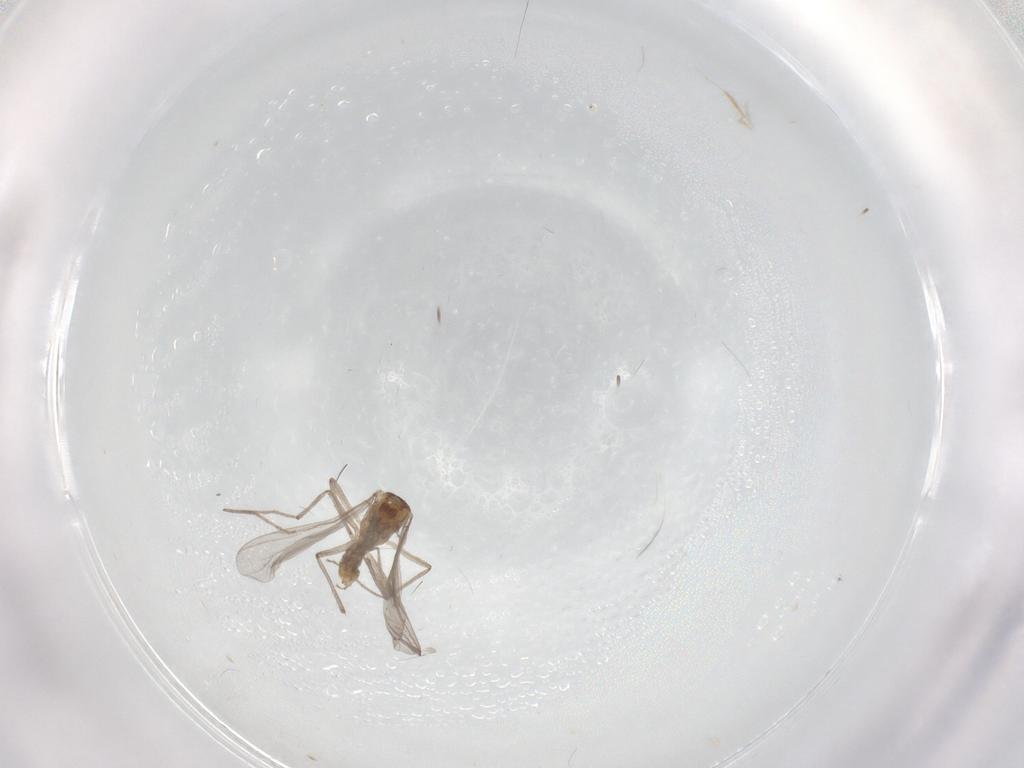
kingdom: Animalia
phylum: Arthropoda
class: Insecta
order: Diptera
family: Chironomidae
